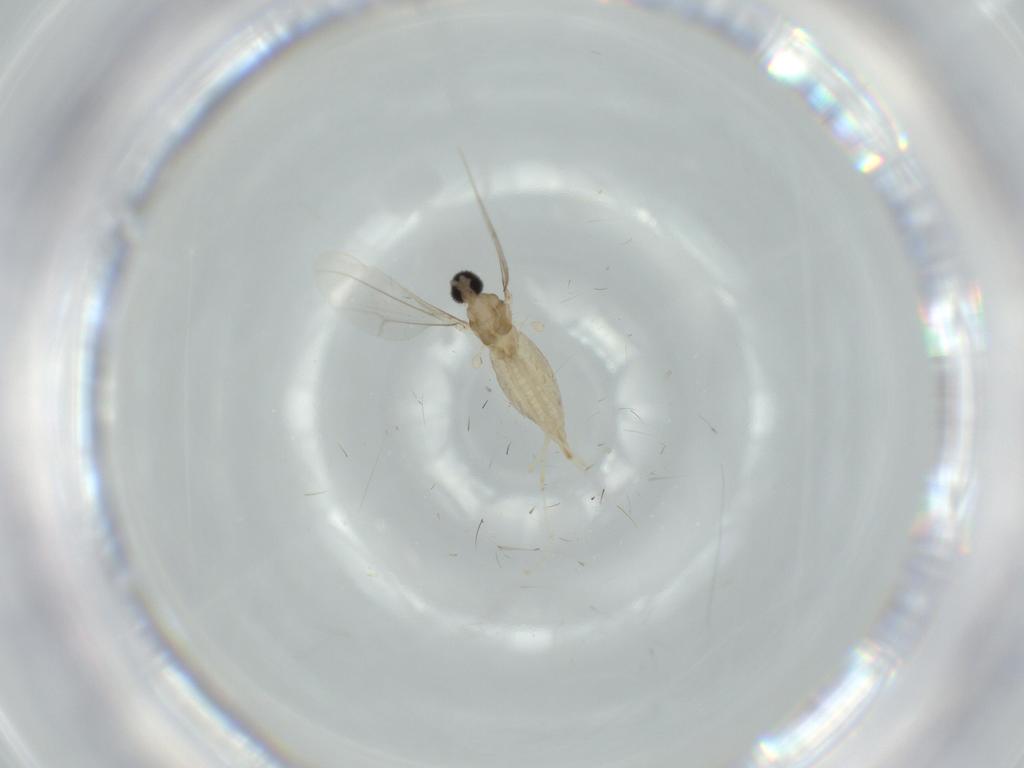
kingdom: Animalia
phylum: Arthropoda
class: Insecta
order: Diptera
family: Cecidomyiidae
